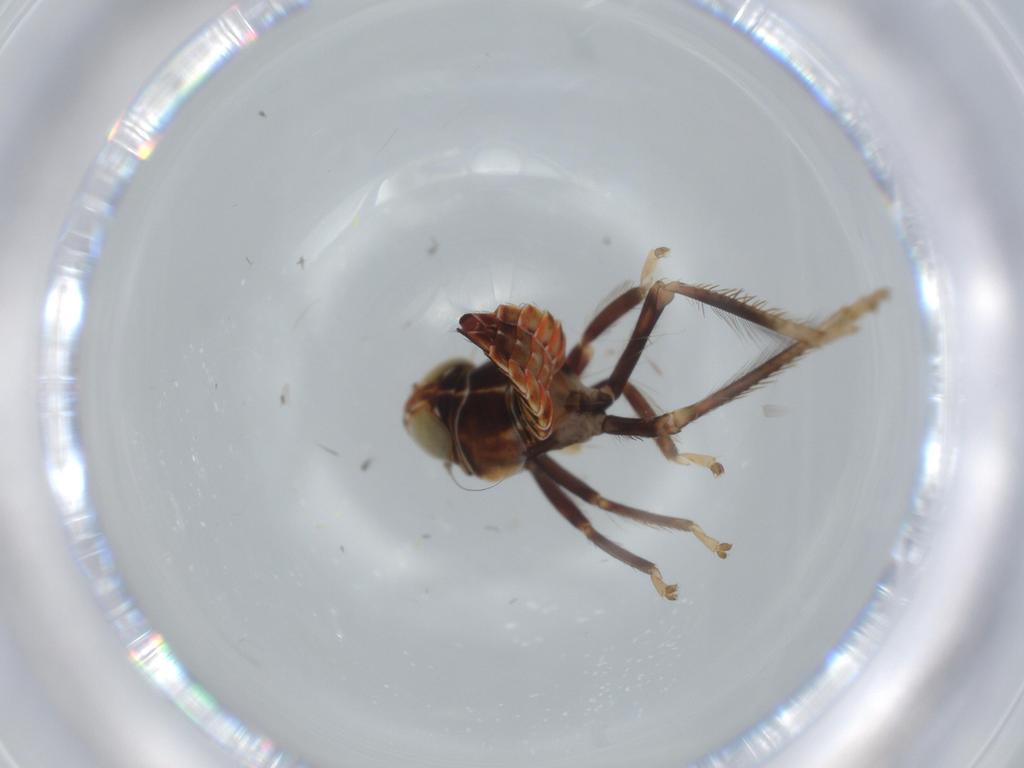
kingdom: Animalia
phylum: Arthropoda
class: Insecta
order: Hemiptera
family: Cicadellidae
